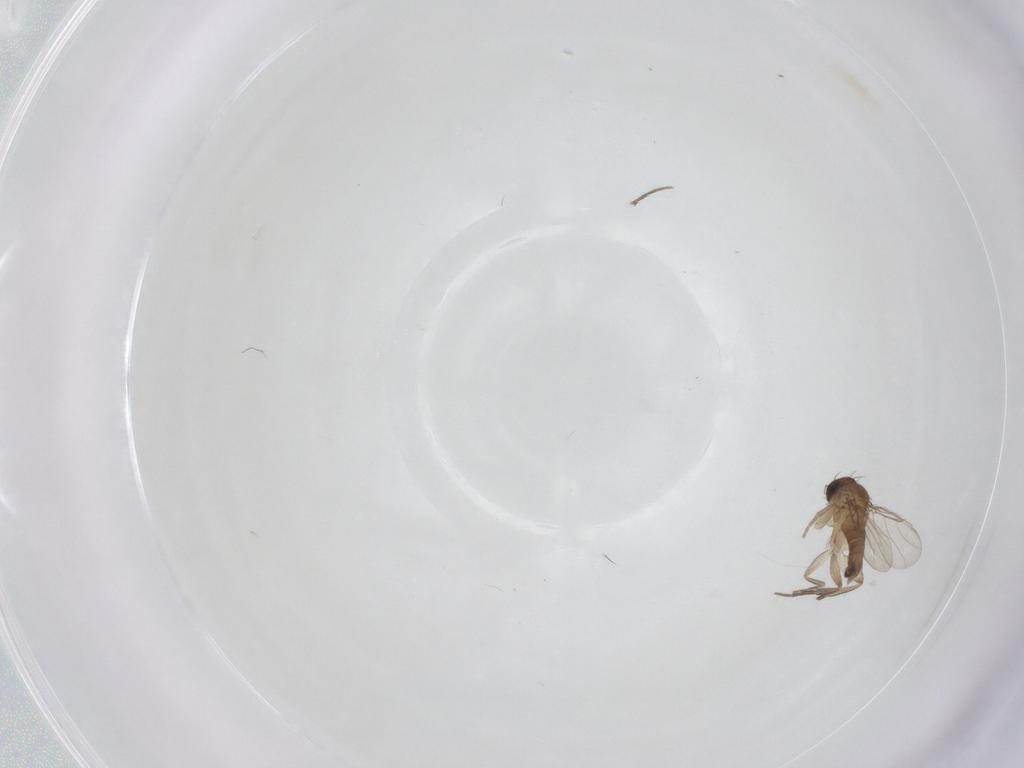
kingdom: Animalia
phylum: Arthropoda
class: Insecta
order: Diptera
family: Phoridae
